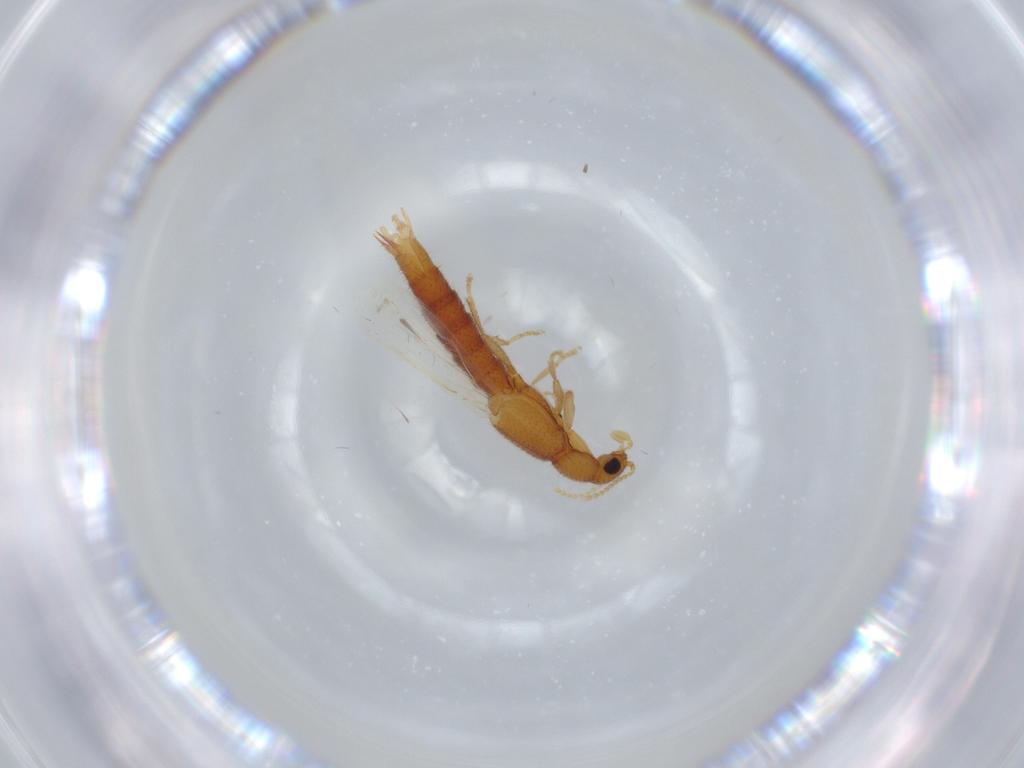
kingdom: Animalia
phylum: Arthropoda
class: Insecta
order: Coleoptera
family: Staphylinidae
